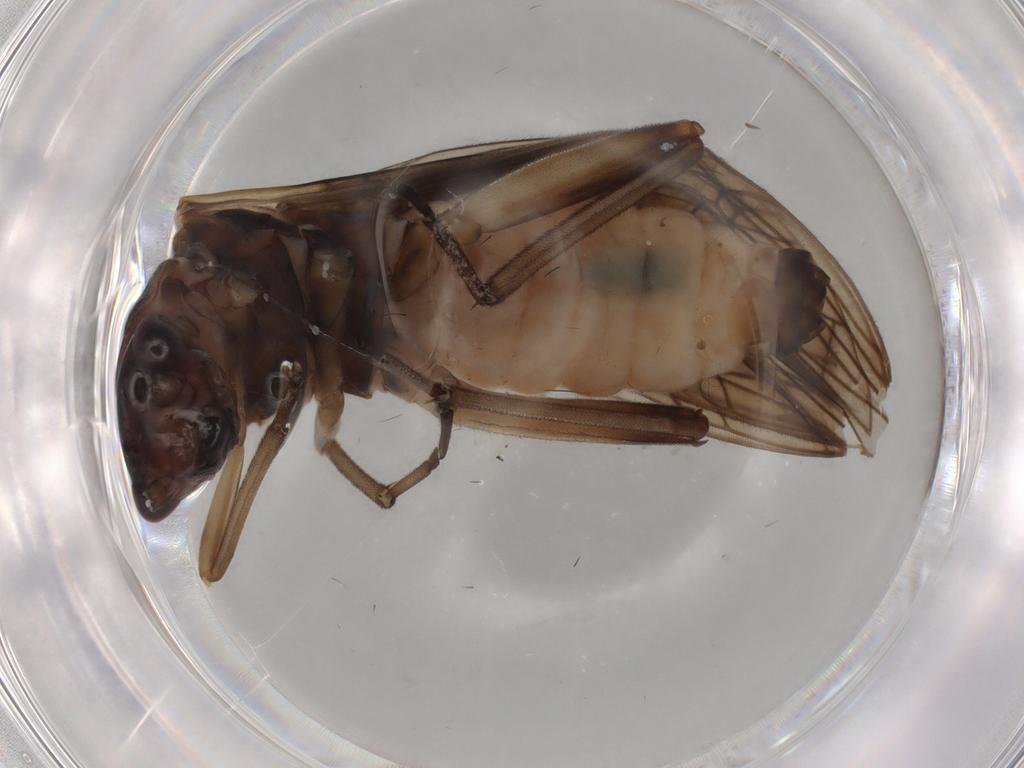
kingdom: Animalia
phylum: Arthropoda
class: Insecta
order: Plecoptera
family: Nemouridae
